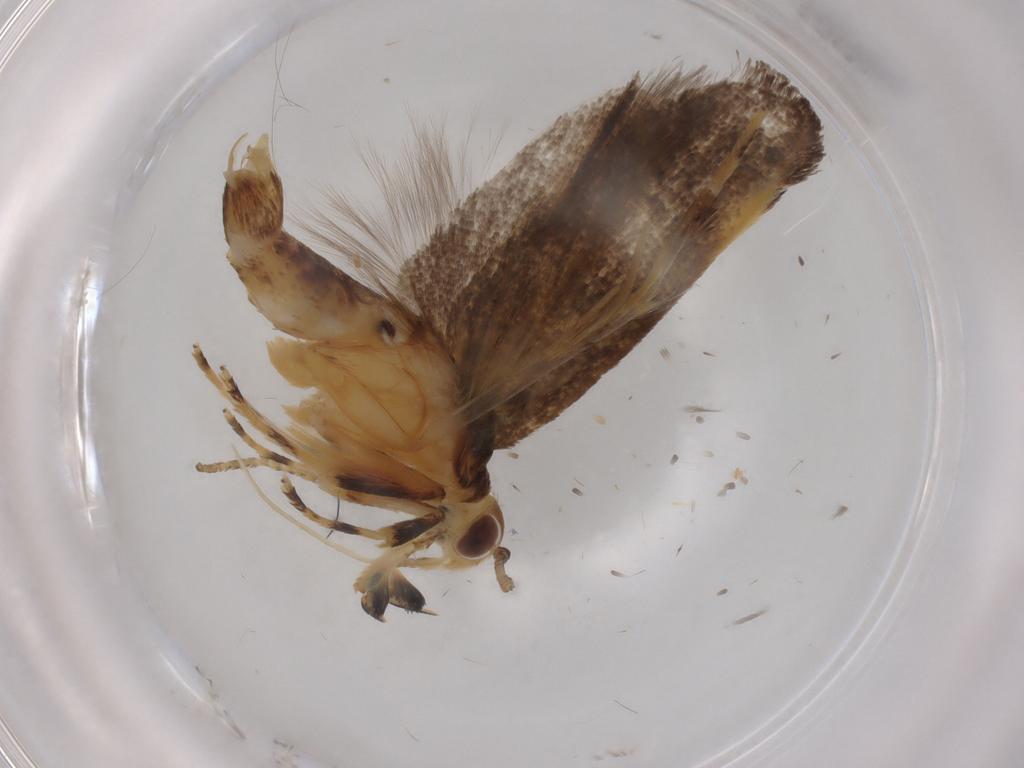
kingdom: Animalia
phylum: Arthropoda
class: Insecta
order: Lepidoptera
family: Lecithoceridae
